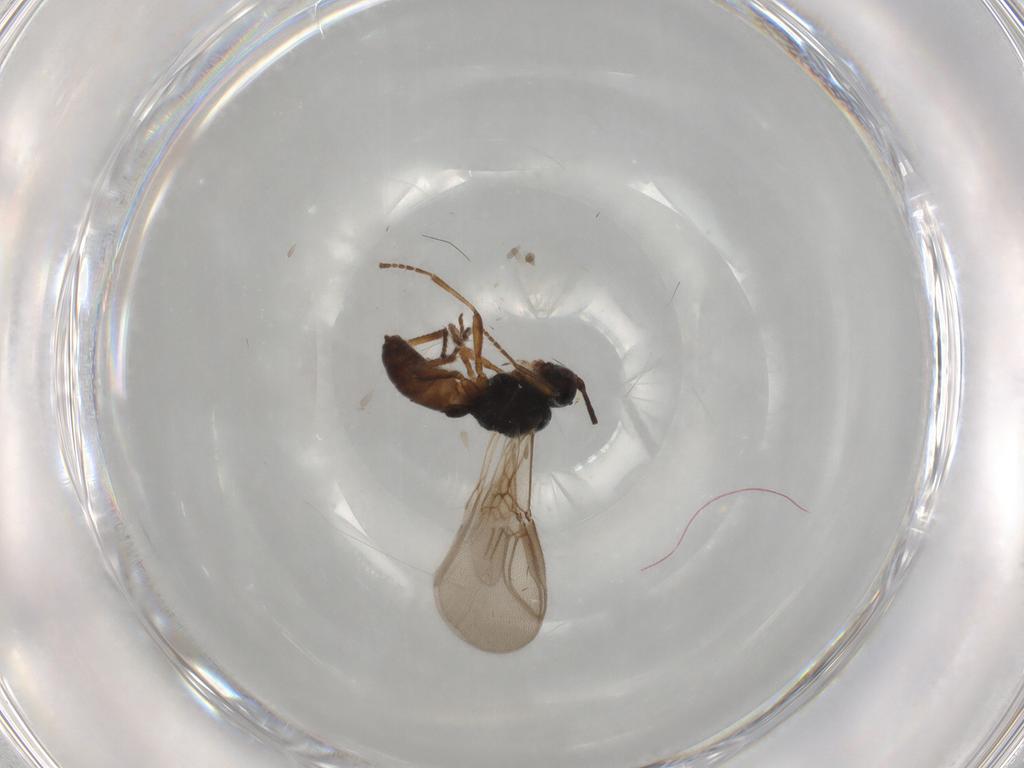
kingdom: Animalia
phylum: Arthropoda
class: Insecta
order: Hymenoptera
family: Braconidae
